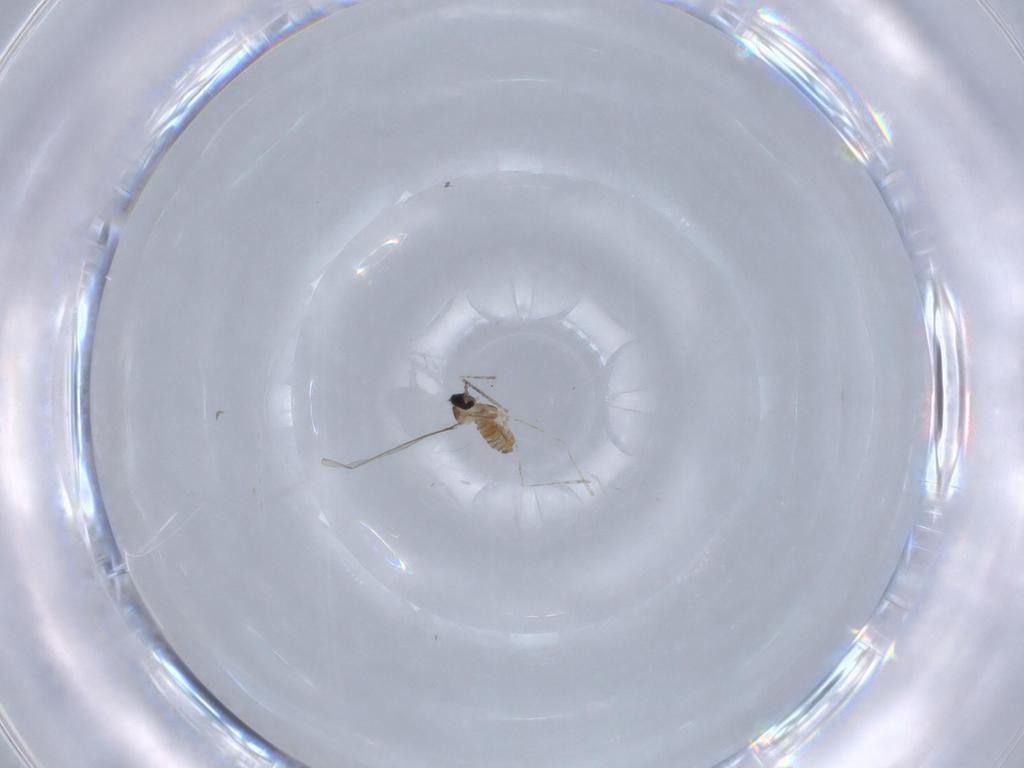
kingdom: Animalia
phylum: Arthropoda
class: Insecta
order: Diptera
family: Cecidomyiidae
